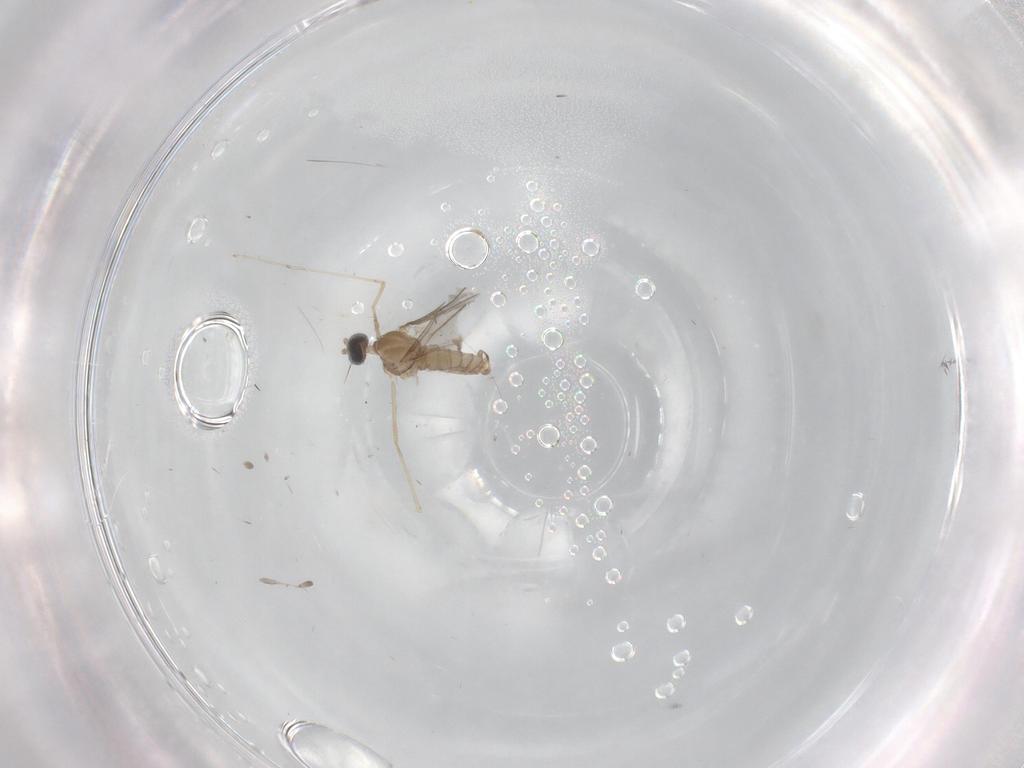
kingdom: Animalia
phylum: Arthropoda
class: Insecta
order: Diptera
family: Cecidomyiidae
